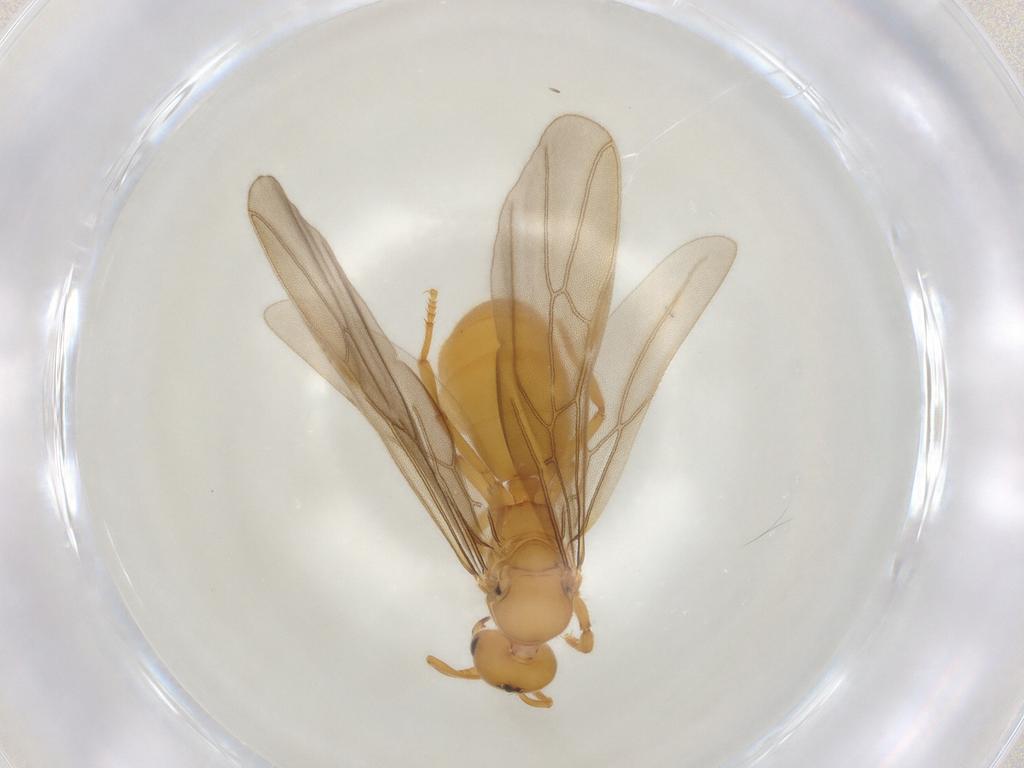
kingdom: Animalia
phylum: Arthropoda
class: Insecta
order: Hymenoptera
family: Formicidae
